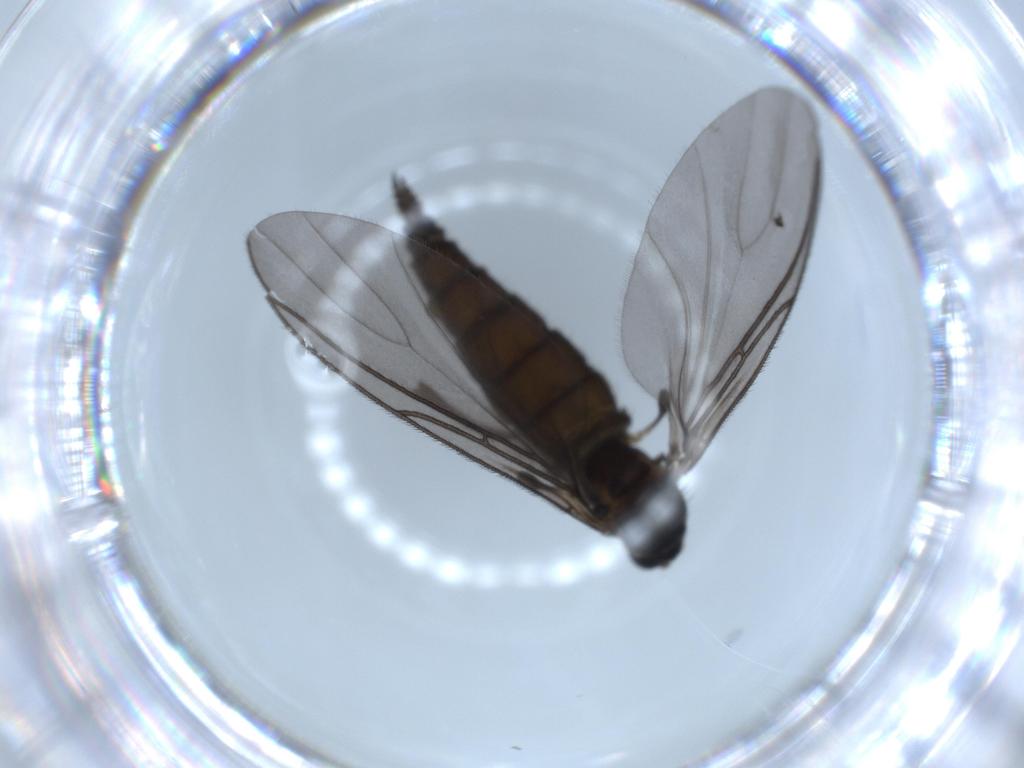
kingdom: Animalia
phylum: Arthropoda
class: Insecta
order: Diptera
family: Sciaridae
